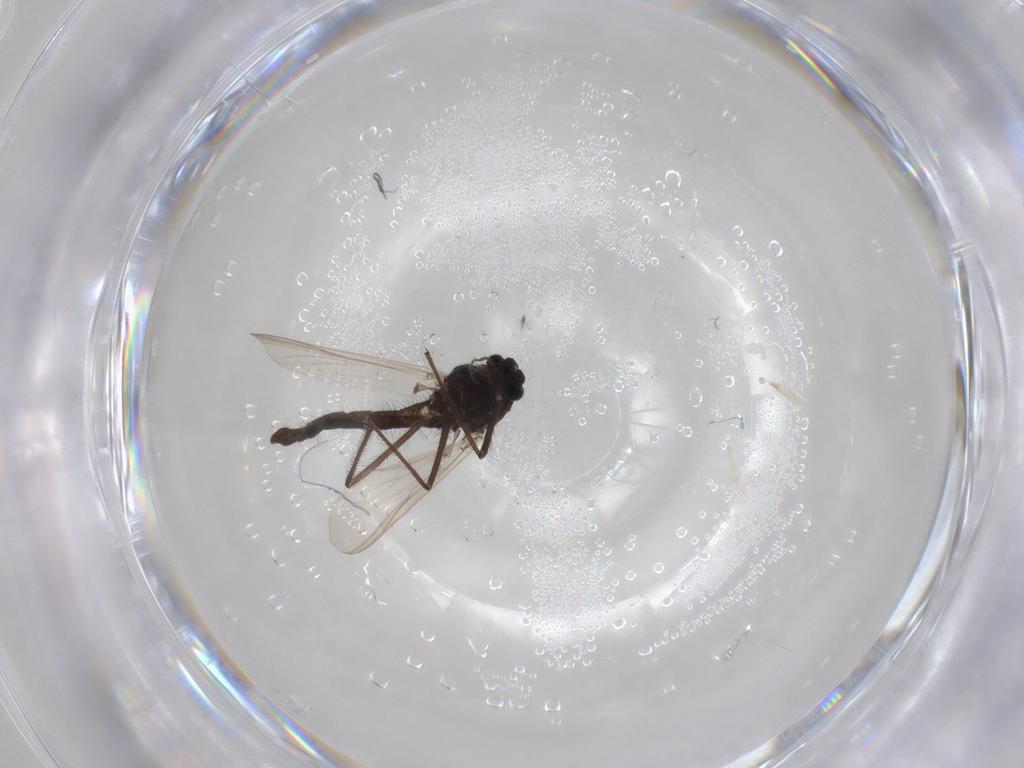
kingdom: Animalia
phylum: Arthropoda
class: Insecta
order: Diptera
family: Chironomidae
